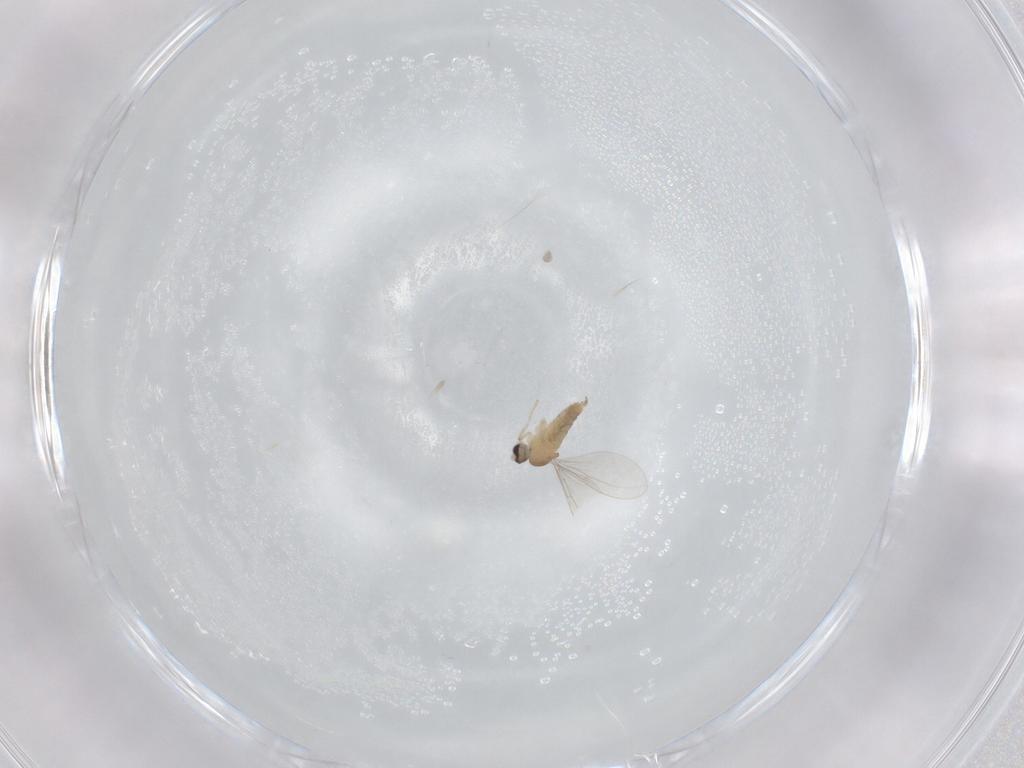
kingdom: Animalia
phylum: Arthropoda
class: Insecta
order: Diptera
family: Cecidomyiidae
